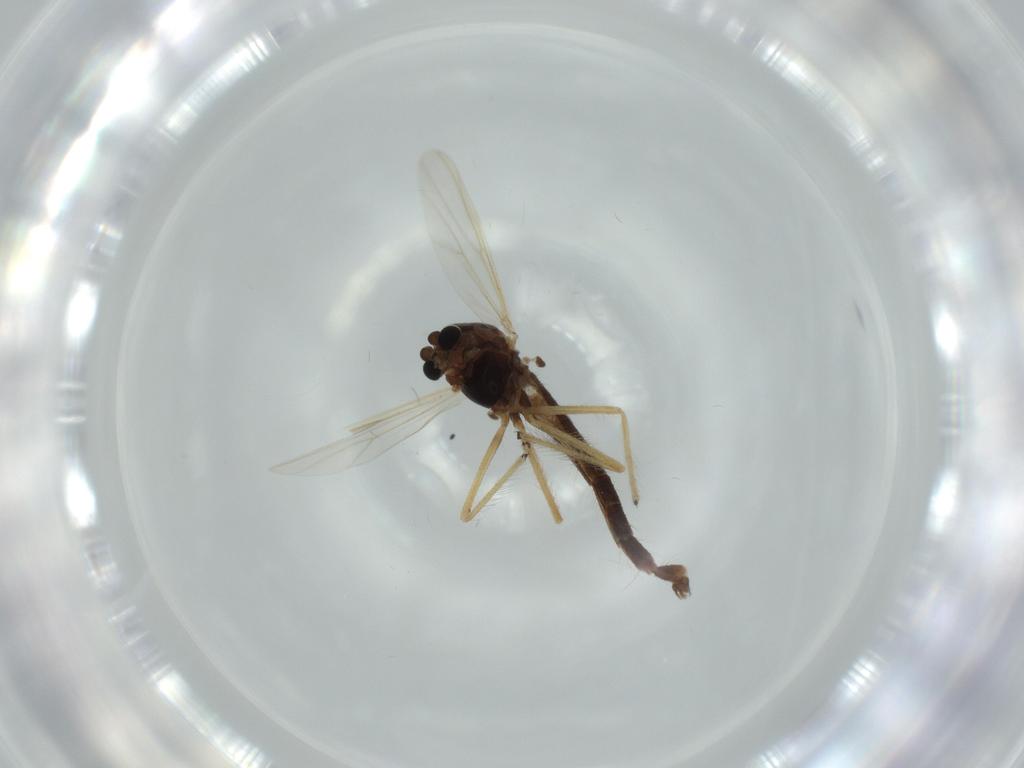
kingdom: Animalia
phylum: Arthropoda
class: Insecta
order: Diptera
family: Chironomidae
